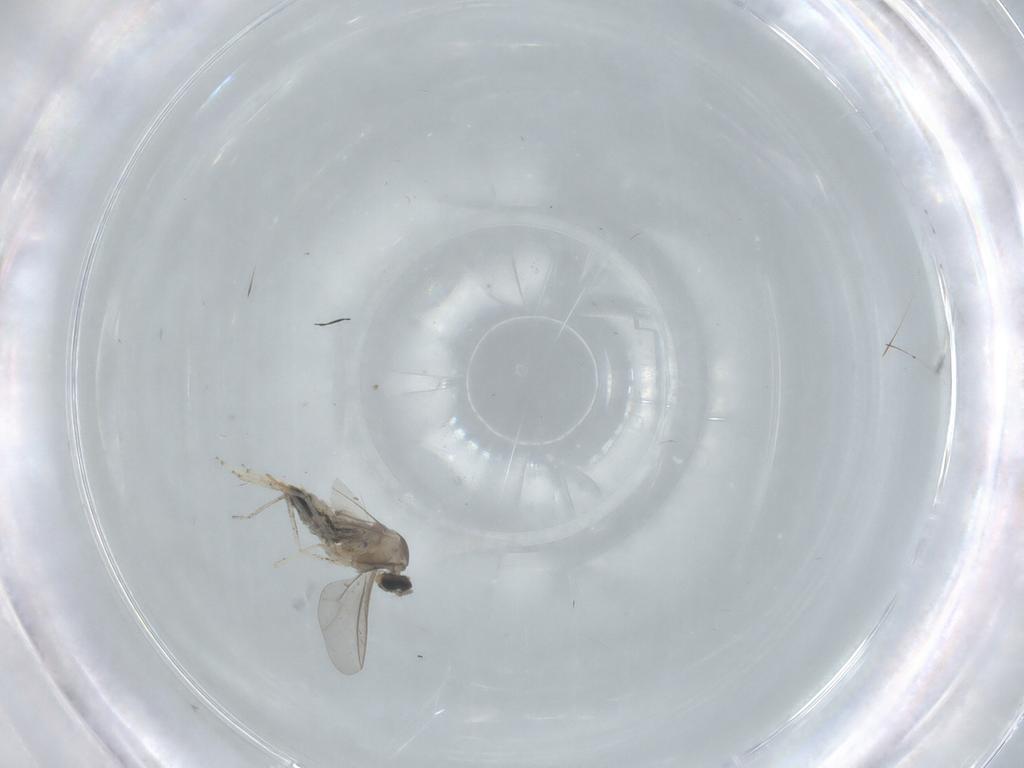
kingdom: Animalia
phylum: Arthropoda
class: Insecta
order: Diptera
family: Cecidomyiidae
